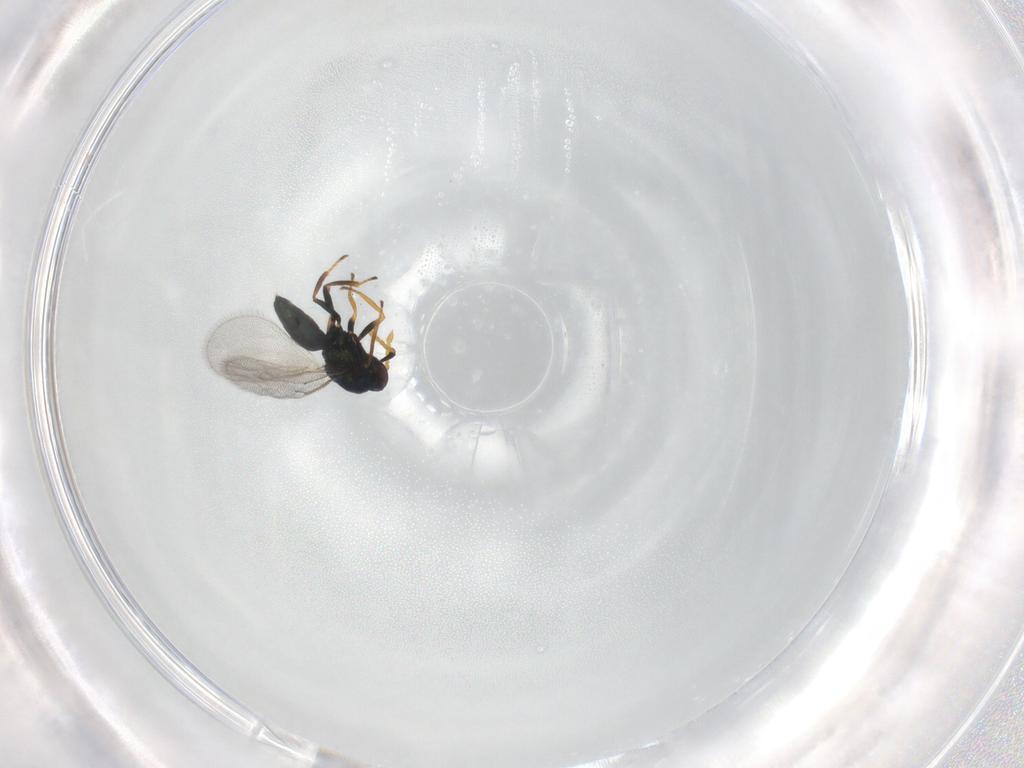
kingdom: Animalia
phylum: Arthropoda
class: Insecta
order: Hymenoptera
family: Eulophidae
